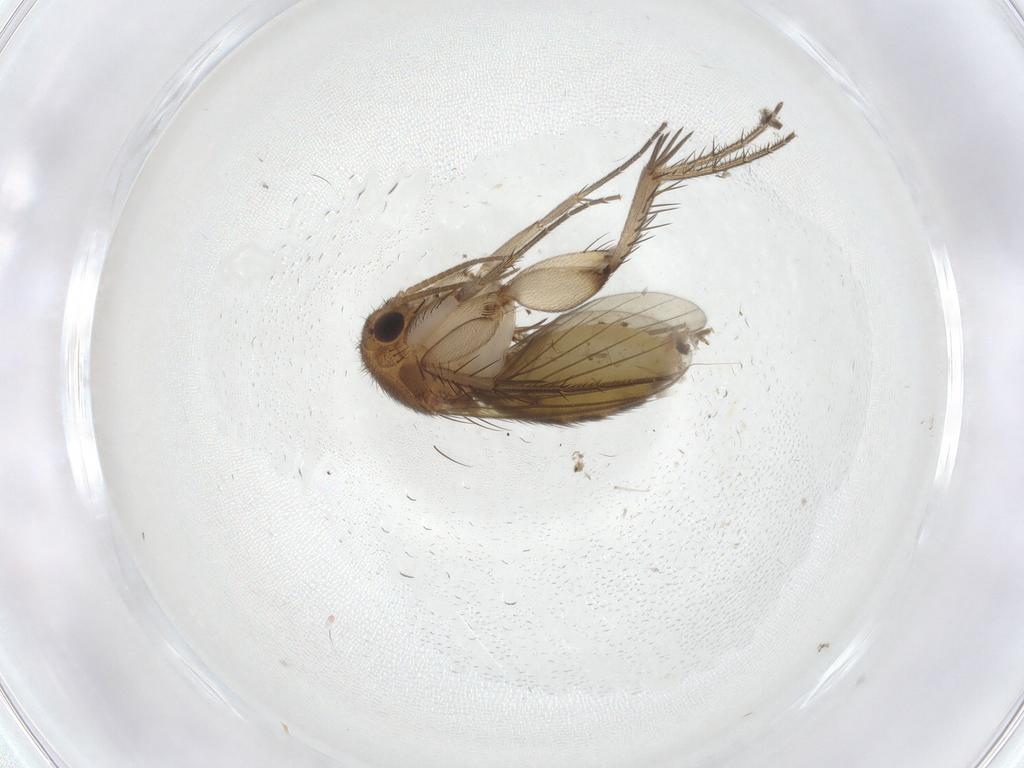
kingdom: Animalia
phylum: Arthropoda
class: Insecta
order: Diptera
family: Mycetophilidae
